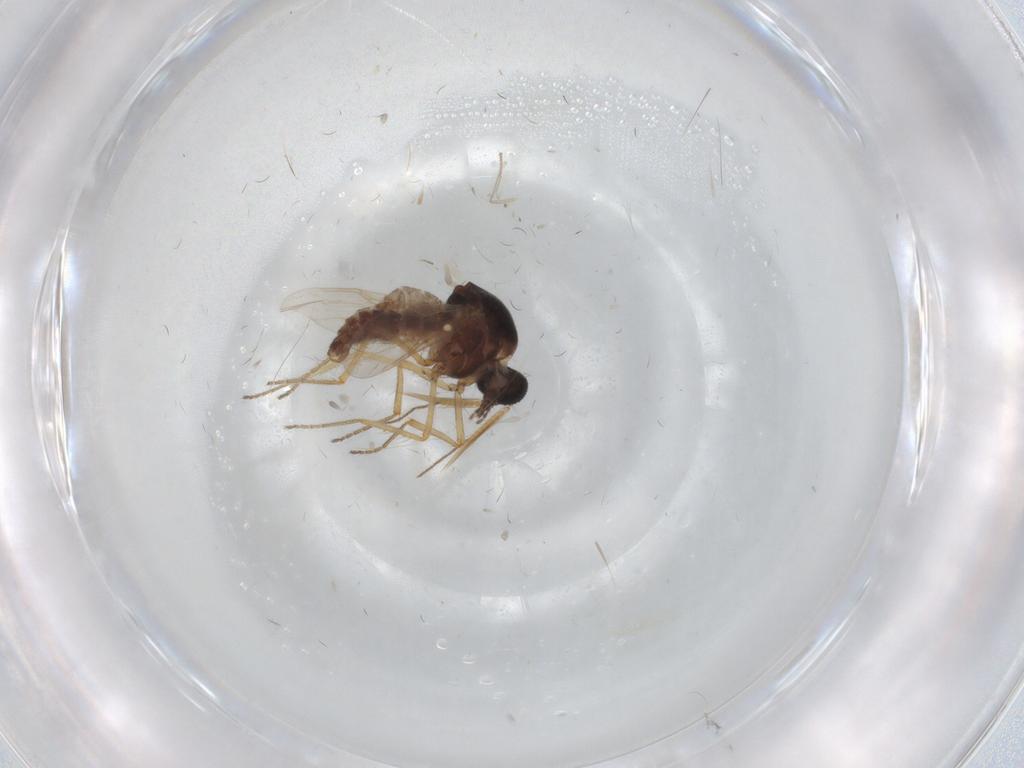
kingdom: Animalia
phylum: Arthropoda
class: Insecta
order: Diptera
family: Ceratopogonidae
